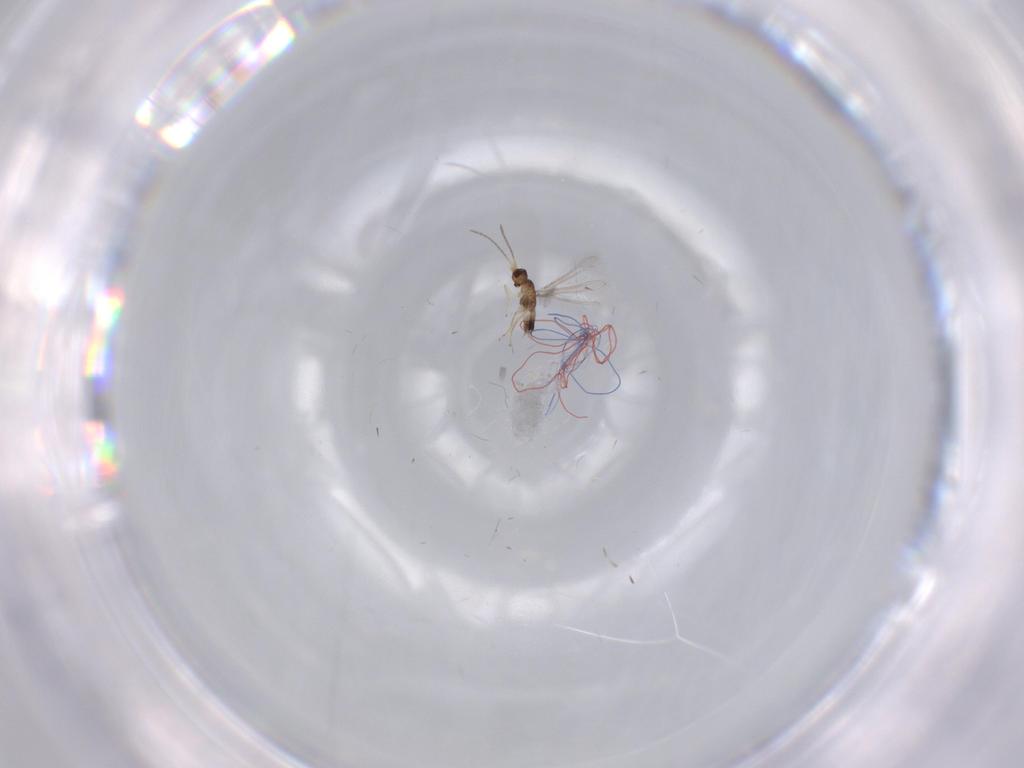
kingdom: Animalia
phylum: Arthropoda
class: Insecta
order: Hymenoptera
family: Mymaridae
